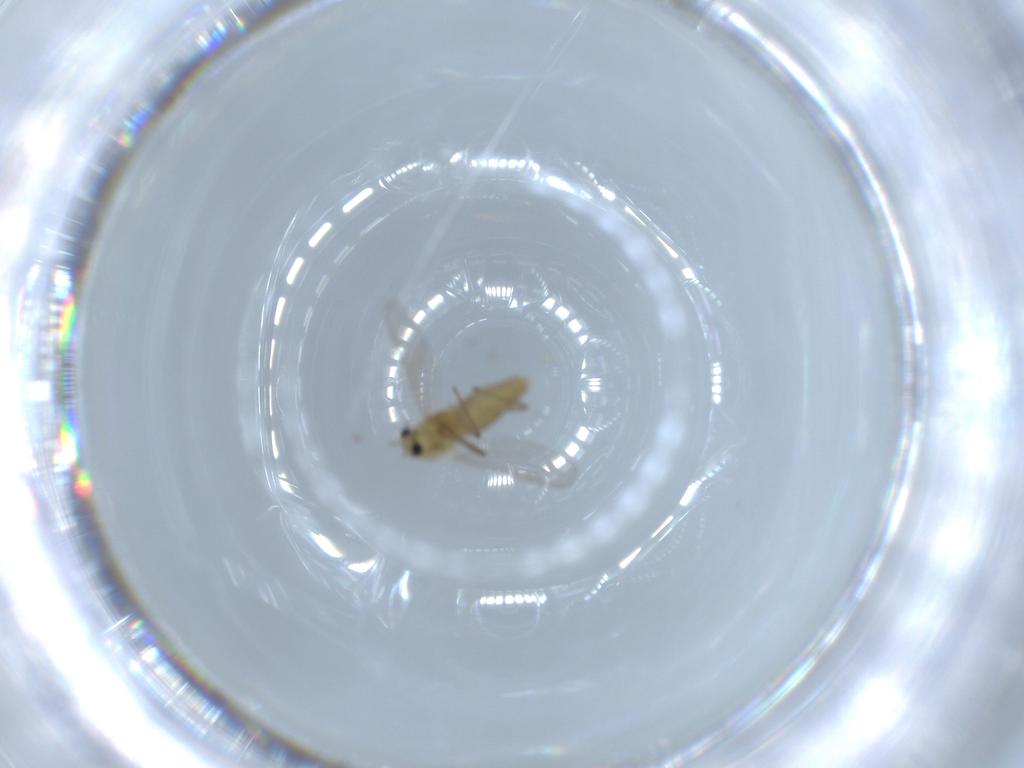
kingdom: Animalia
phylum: Arthropoda
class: Insecta
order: Diptera
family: Chironomidae
